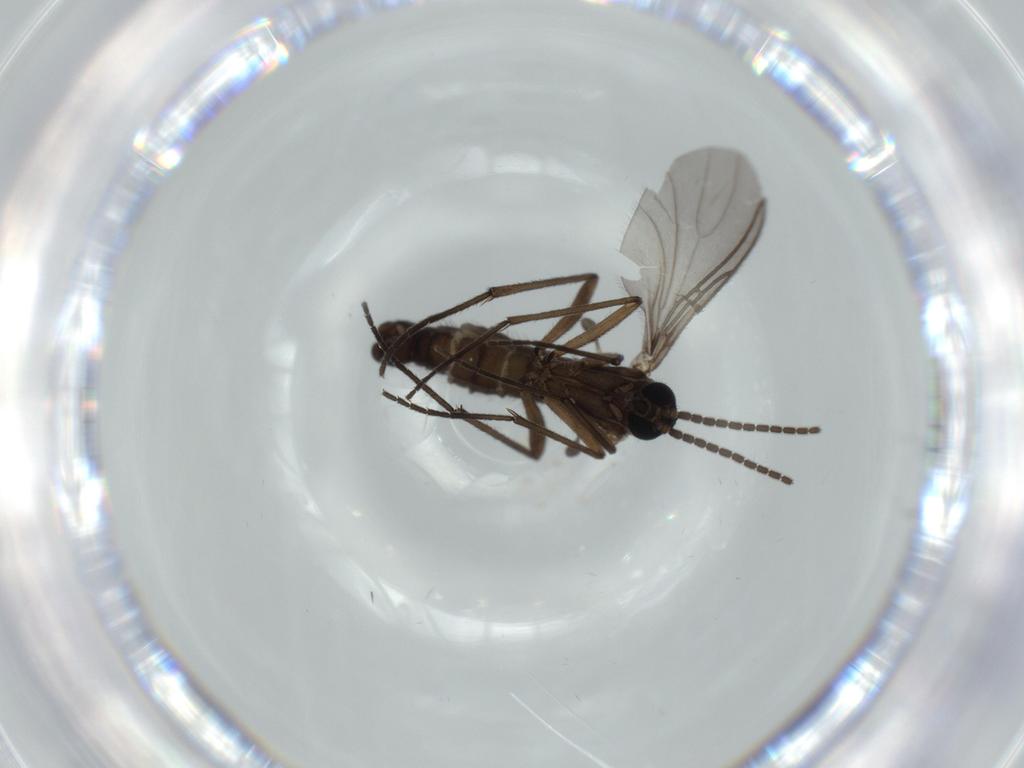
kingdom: Animalia
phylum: Arthropoda
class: Insecta
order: Diptera
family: Sciaridae
